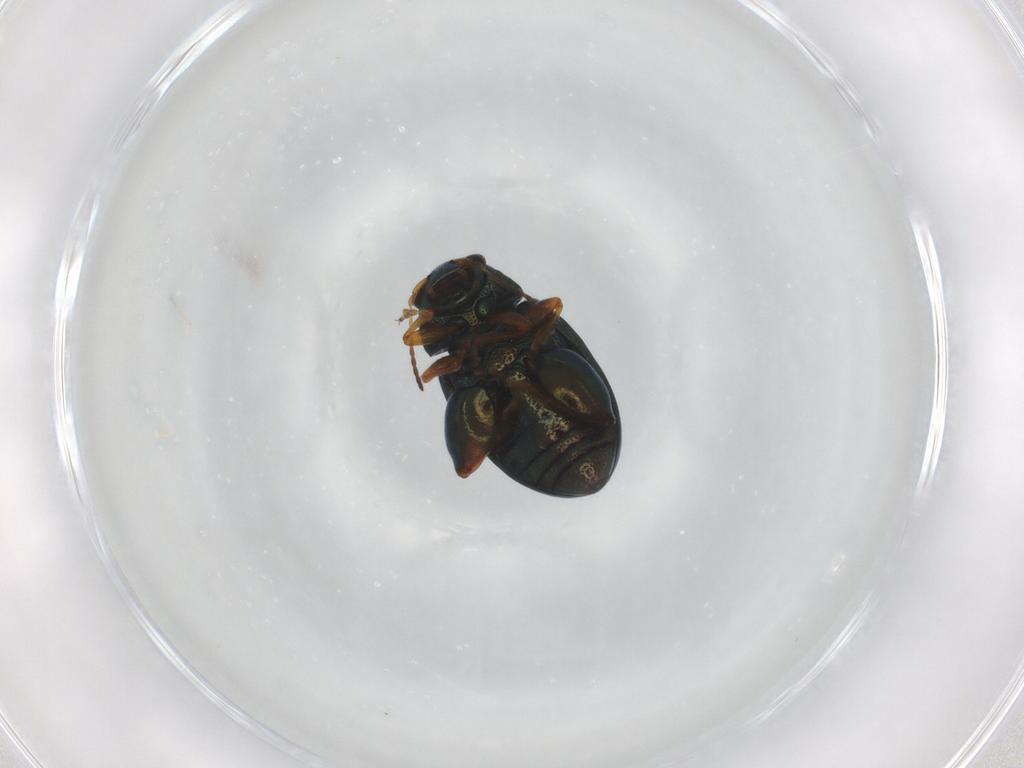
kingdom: Animalia
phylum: Arthropoda
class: Insecta
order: Coleoptera
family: Chrysomelidae
